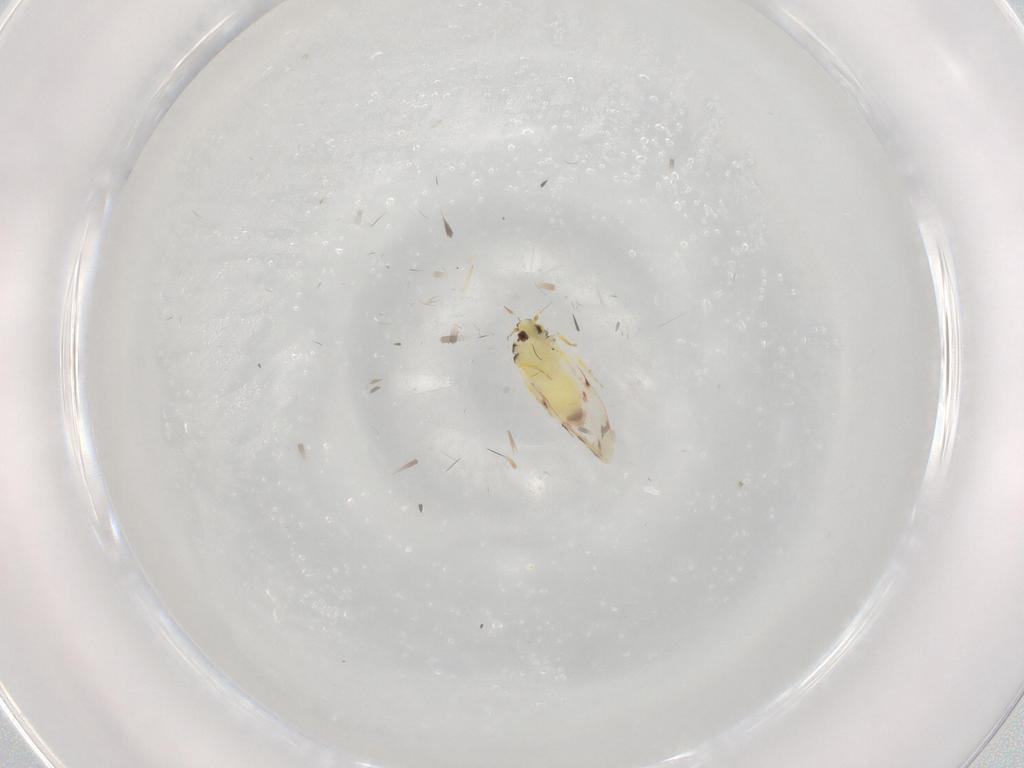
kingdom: Animalia
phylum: Arthropoda
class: Insecta
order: Hemiptera
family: Aleyrodidae
